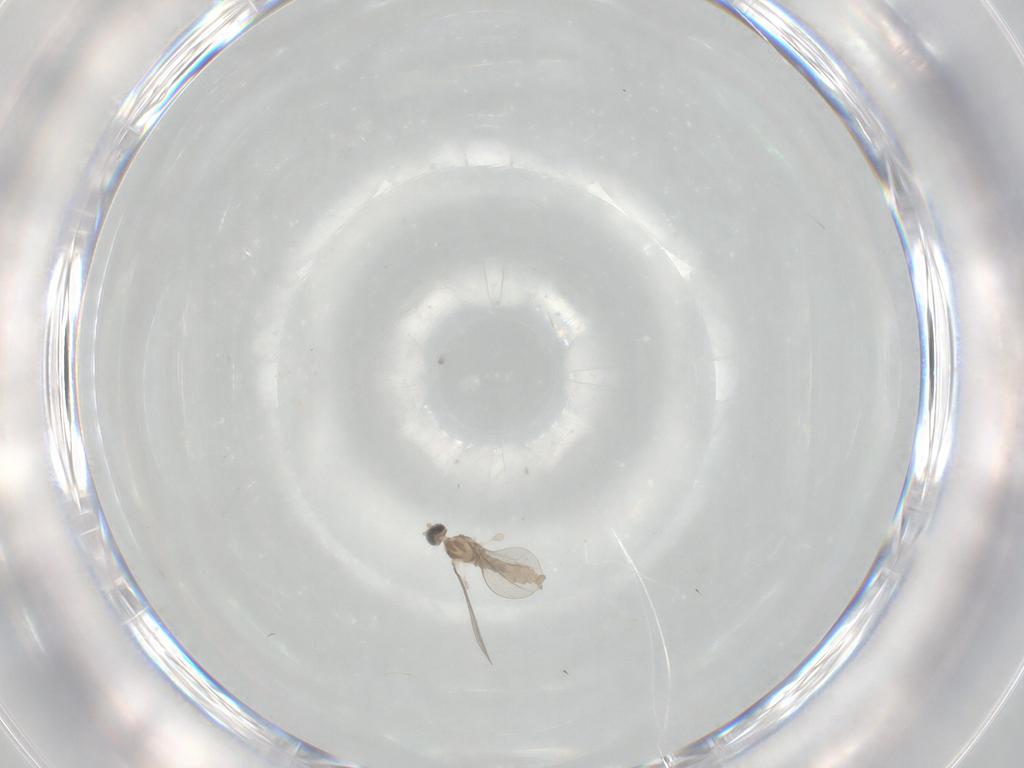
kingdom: Animalia
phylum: Arthropoda
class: Insecta
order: Diptera
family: Cecidomyiidae
